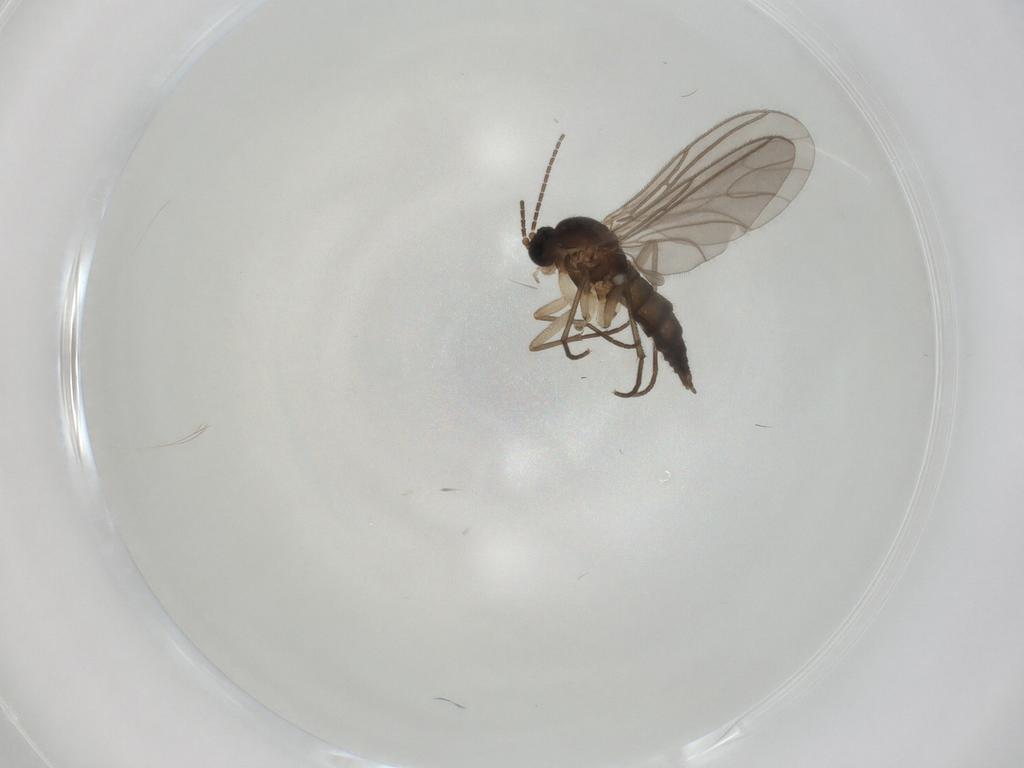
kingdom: Animalia
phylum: Arthropoda
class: Insecta
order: Diptera
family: Sciaridae
